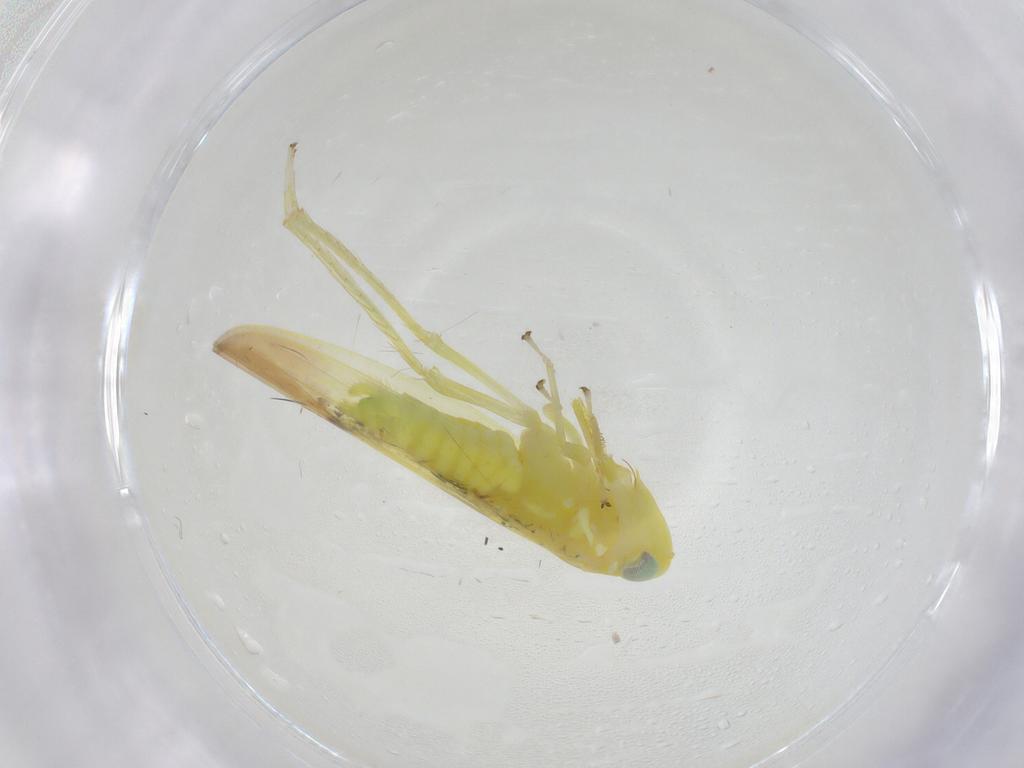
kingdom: Animalia
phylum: Arthropoda
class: Insecta
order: Hemiptera
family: Cicadellidae
